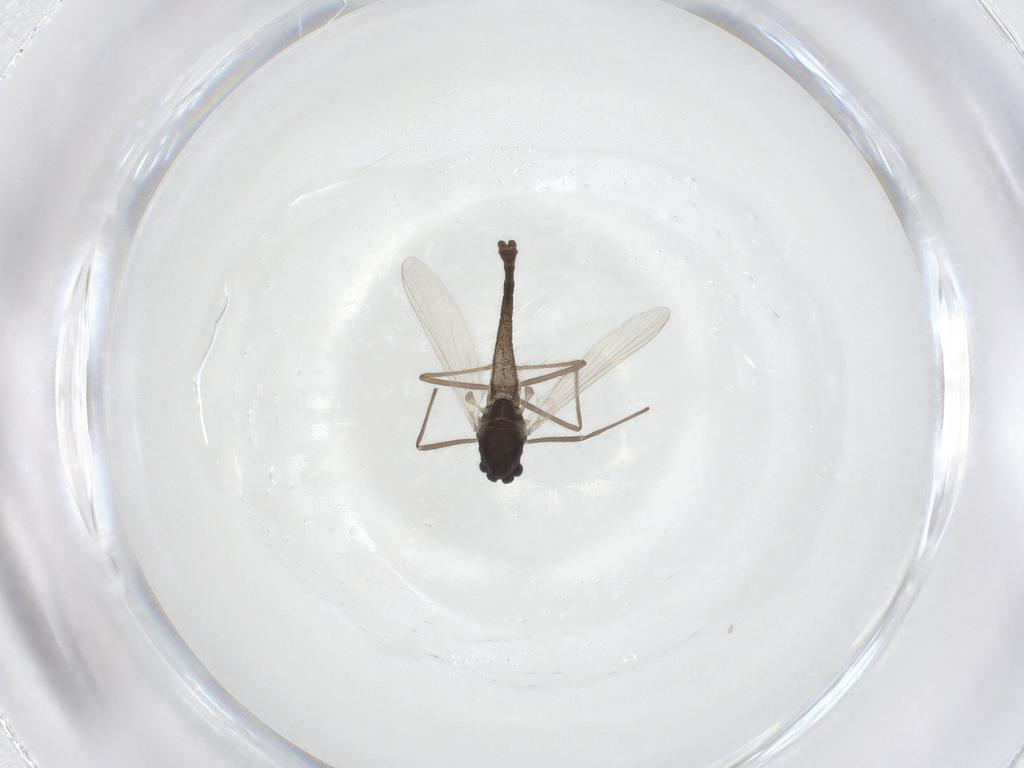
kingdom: Animalia
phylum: Arthropoda
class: Insecta
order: Diptera
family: Chironomidae
